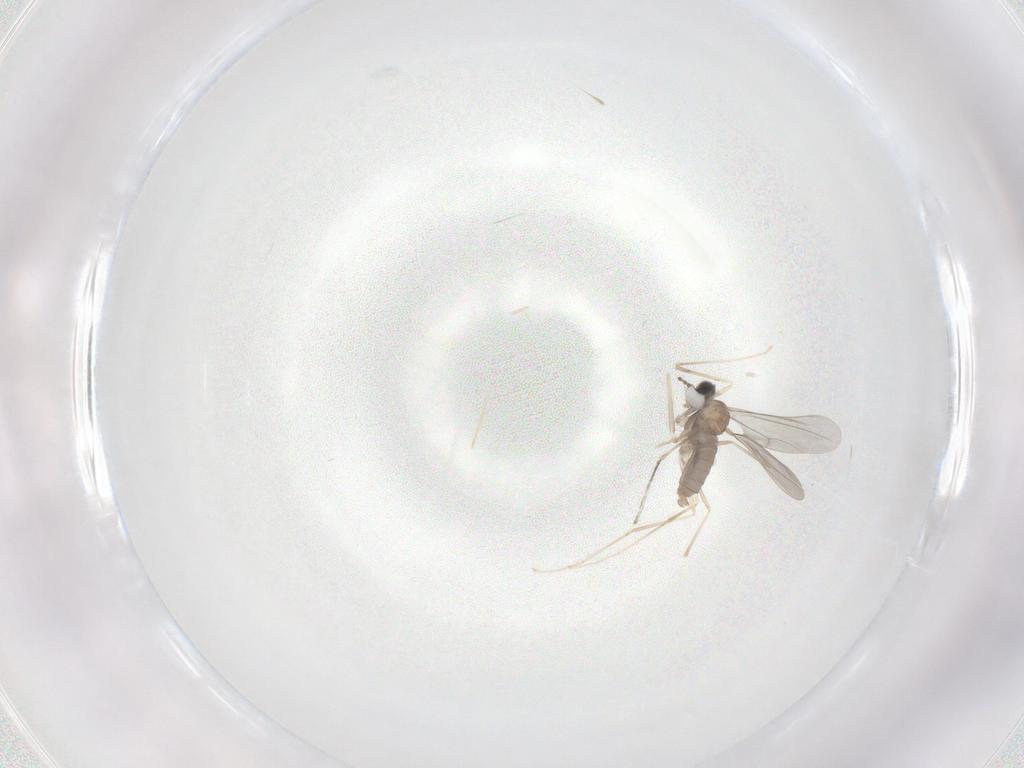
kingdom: Animalia
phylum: Arthropoda
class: Insecta
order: Diptera
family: Cecidomyiidae
